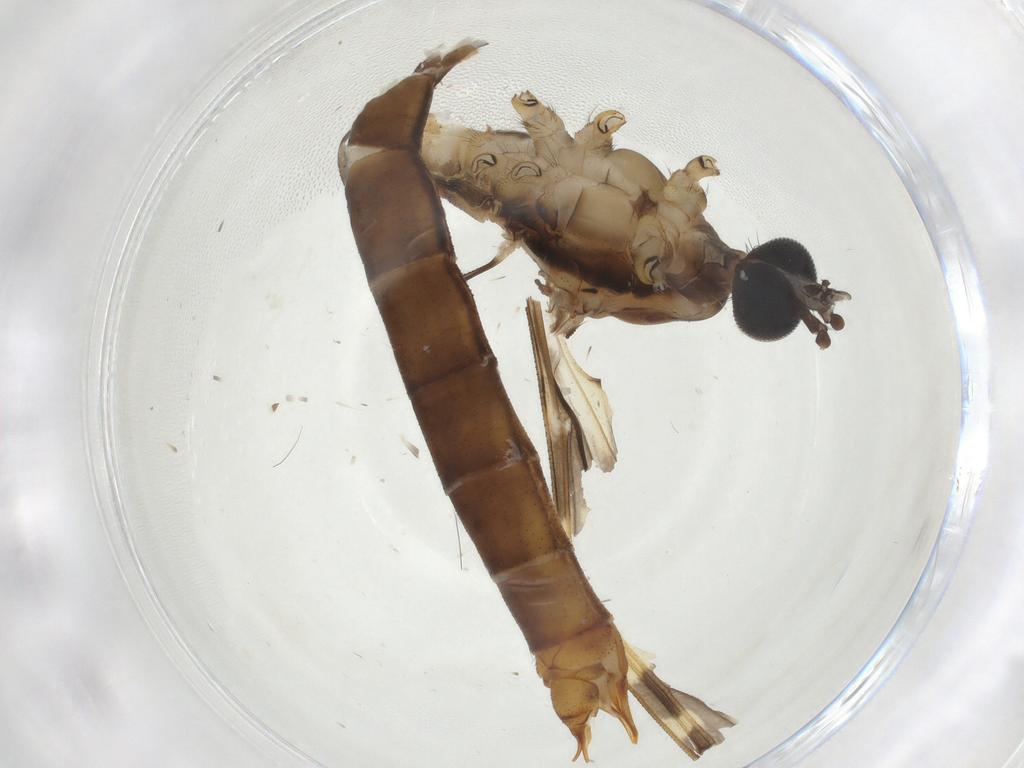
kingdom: Animalia
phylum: Arthropoda
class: Insecta
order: Diptera
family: Limoniidae
